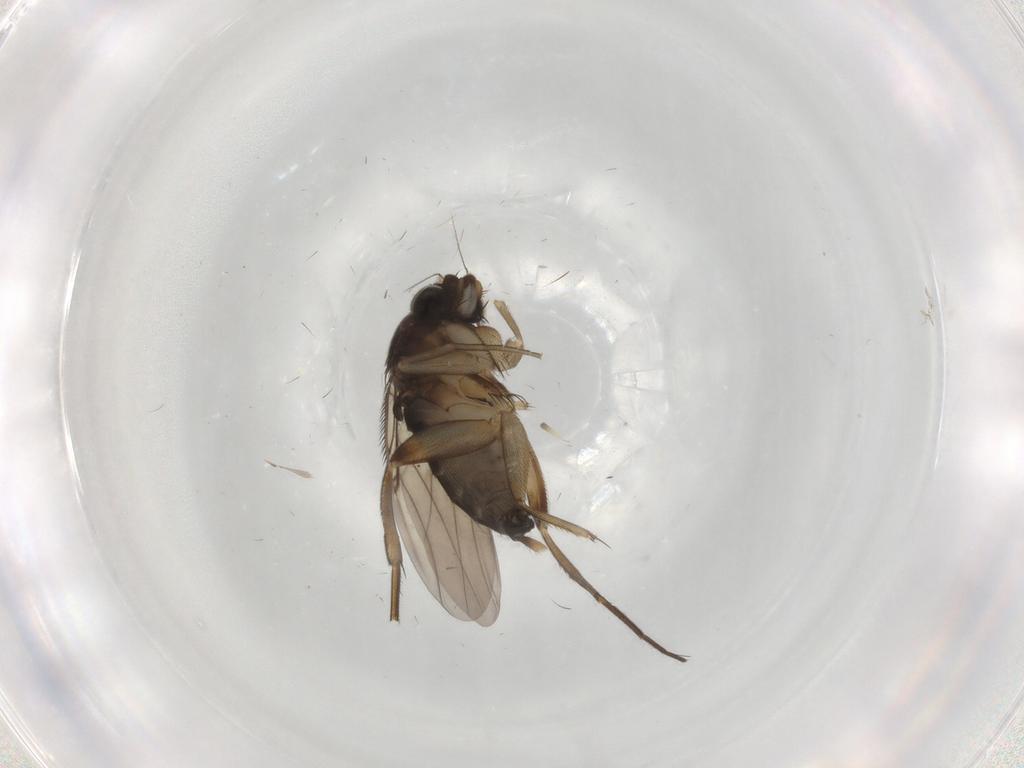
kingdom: Animalia
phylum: Arthropoda
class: Insecta
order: Diptera
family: Phoridae
